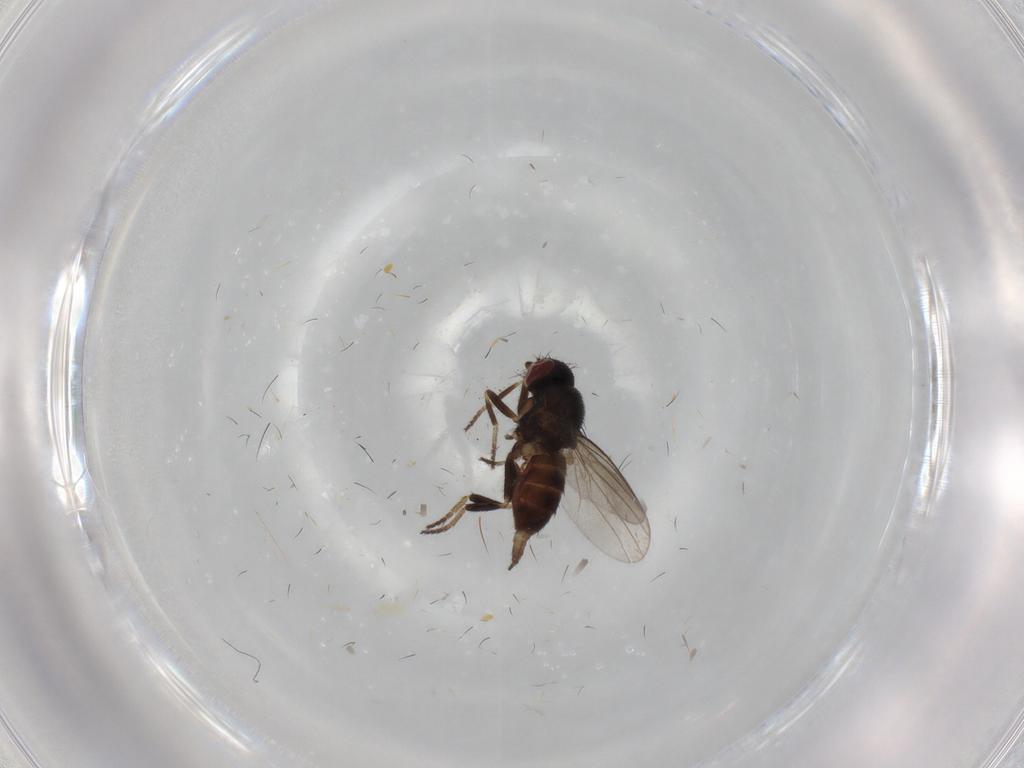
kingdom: Animalia
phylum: Arthropoda
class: Insecta
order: Diptera
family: Milichiidae
